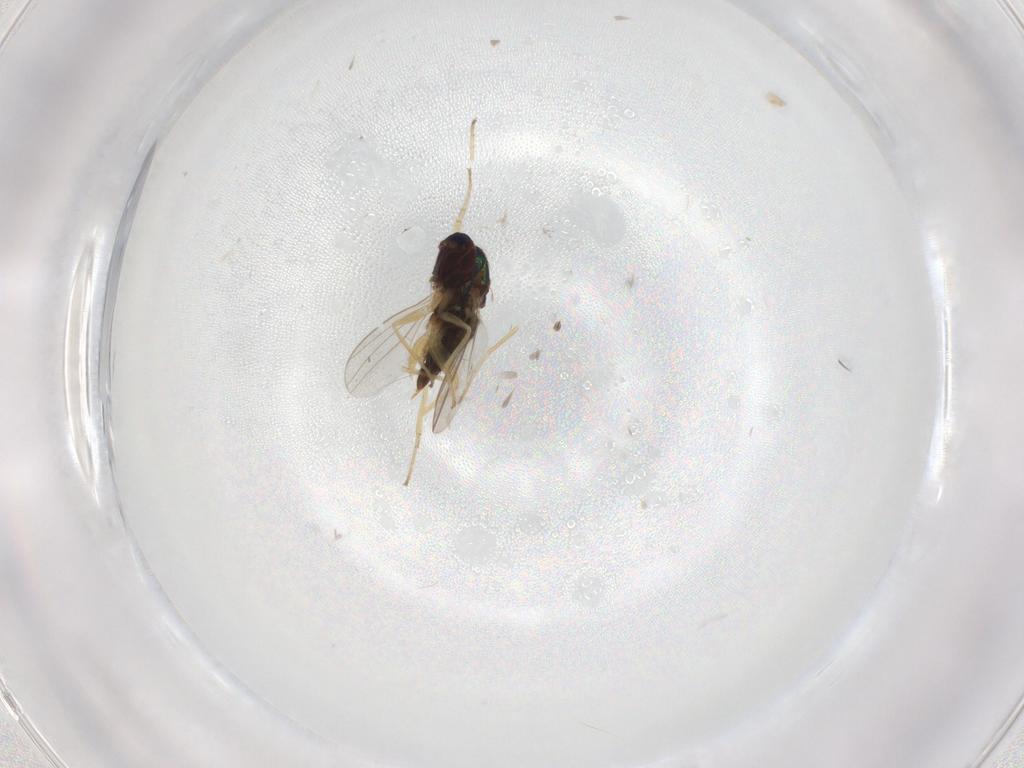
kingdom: Animalia
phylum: Arthropoda
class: Insecta
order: Diptera
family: Dolichopodidae
